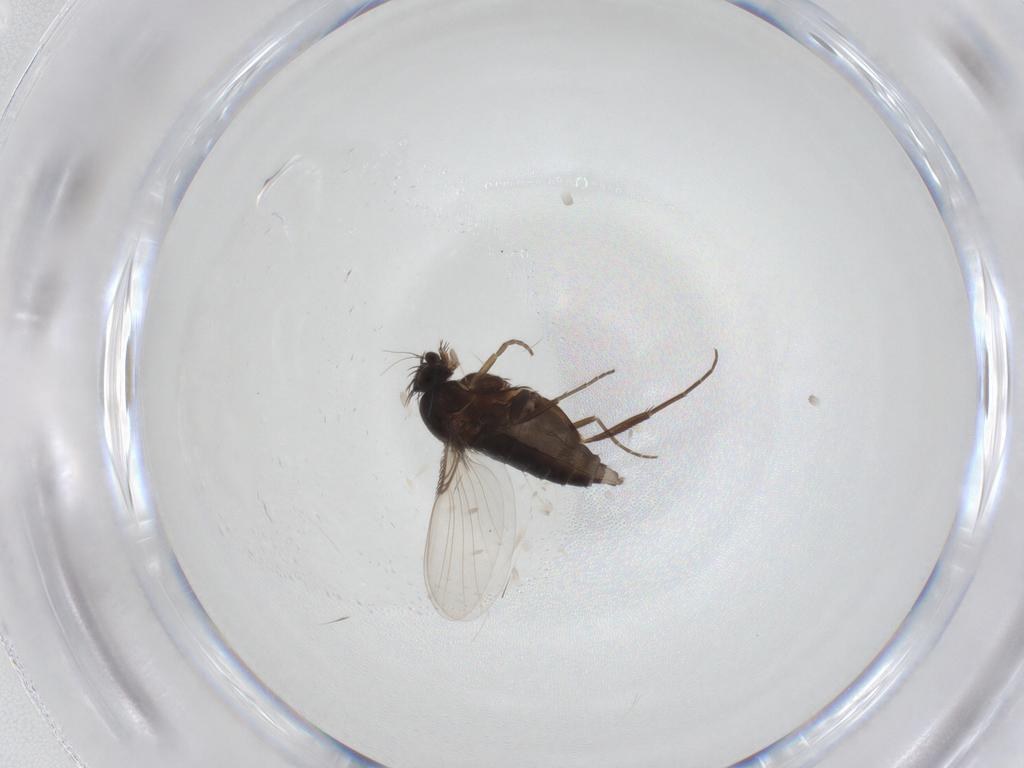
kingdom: Animalia
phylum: Arthropoda
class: Insecta
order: Diptera
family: Phoridae
